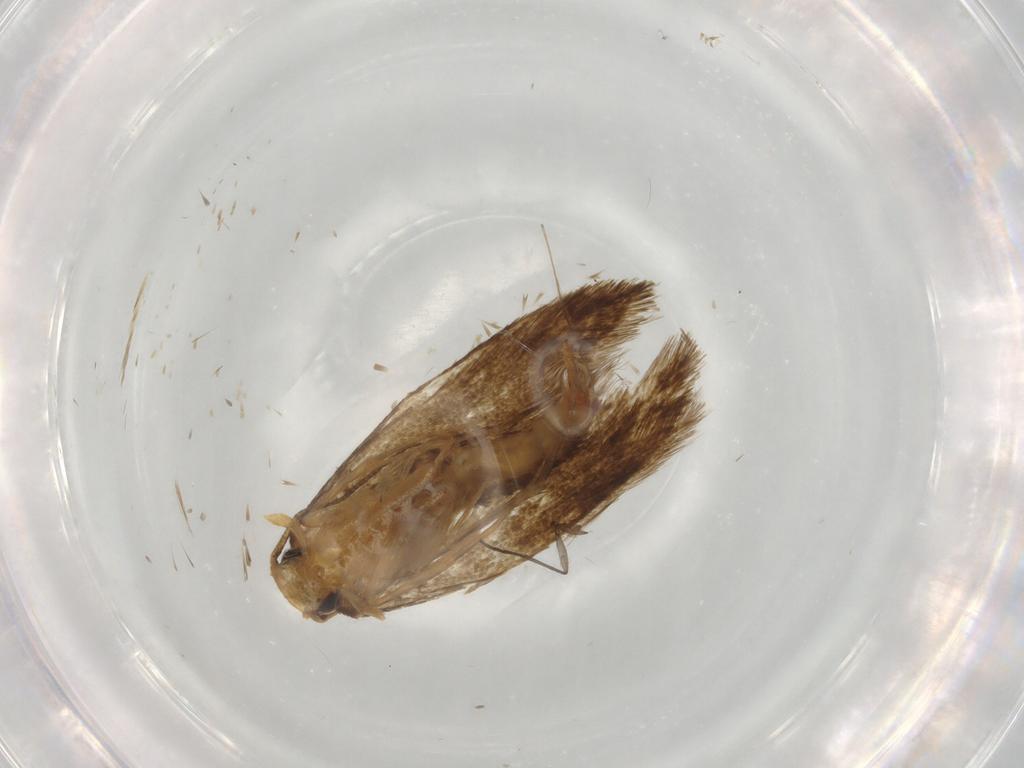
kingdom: Animalia
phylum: Arthropoda
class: Insecta
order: Lepidoptera
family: Tineidae
